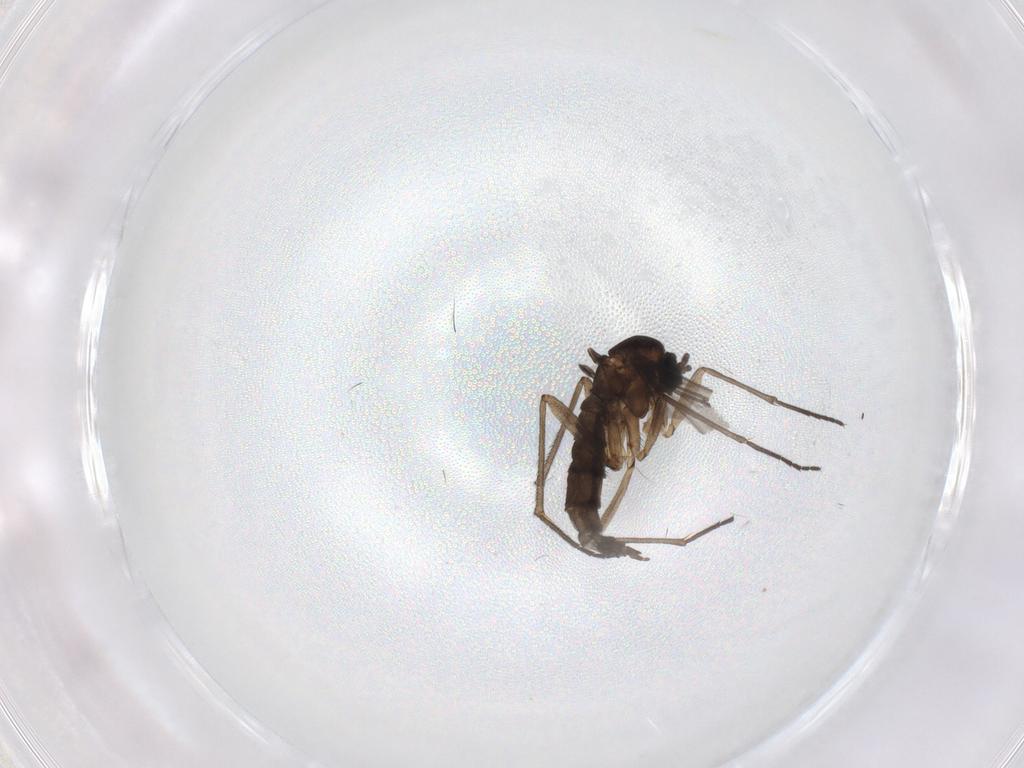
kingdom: Animalia
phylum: Arthropoda
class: Insecta
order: Diptera
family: Sciaridae
